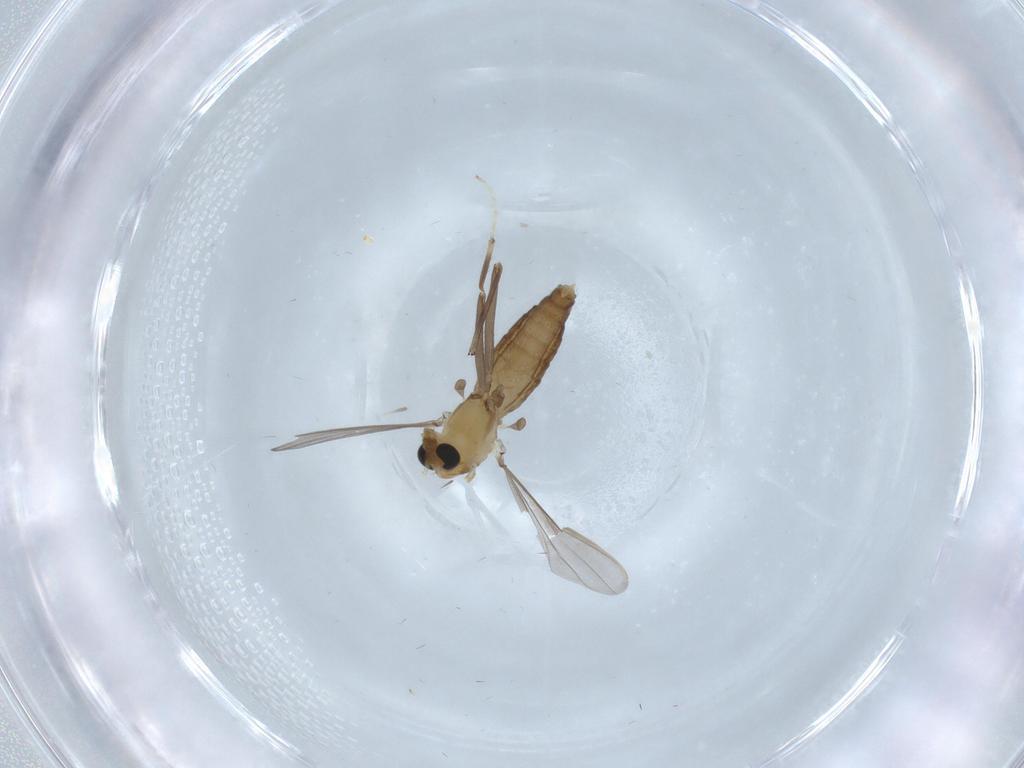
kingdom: Animalia
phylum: Arthropoda
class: Insecta
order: Diptera
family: Chironomidae
